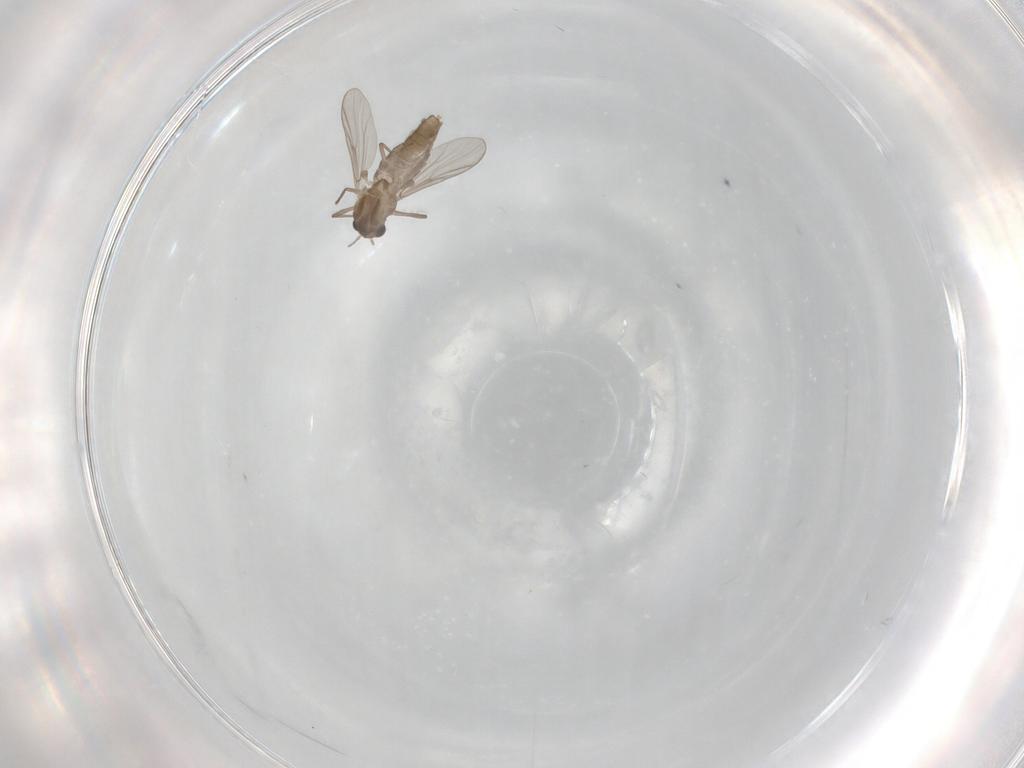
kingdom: Animalia
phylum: Arthropoda
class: Insecta
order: Diptera
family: Chironomidae
